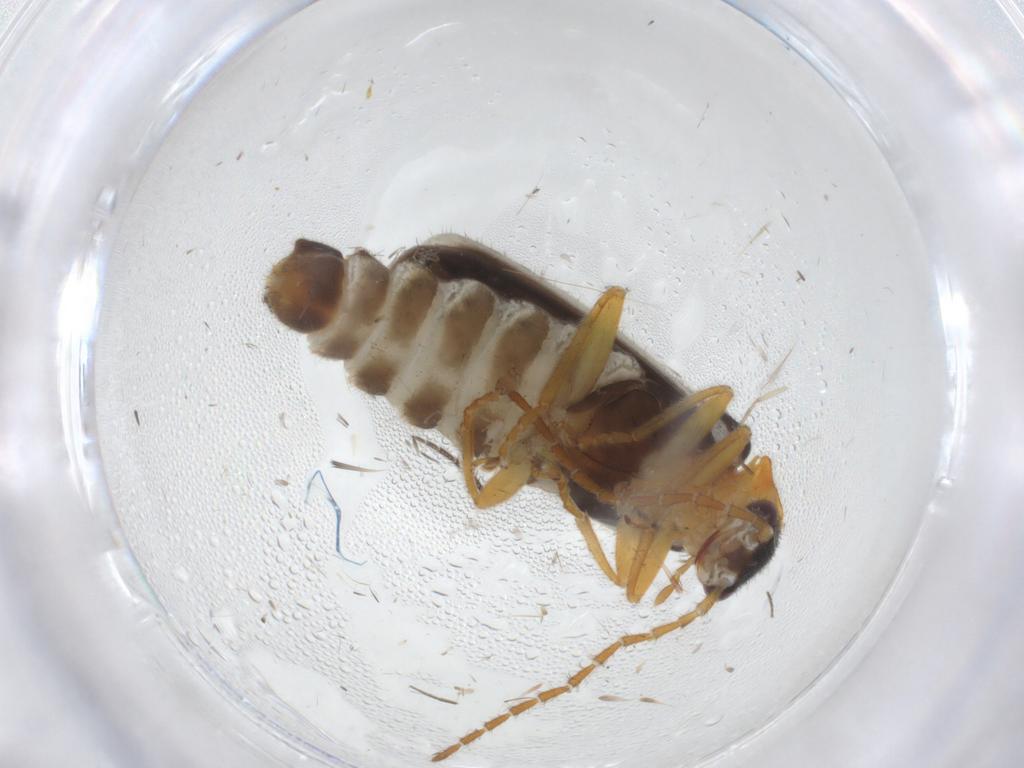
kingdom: Animalia
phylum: Arthropoda
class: Insecta
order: Coleoptera
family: Cantharidae
